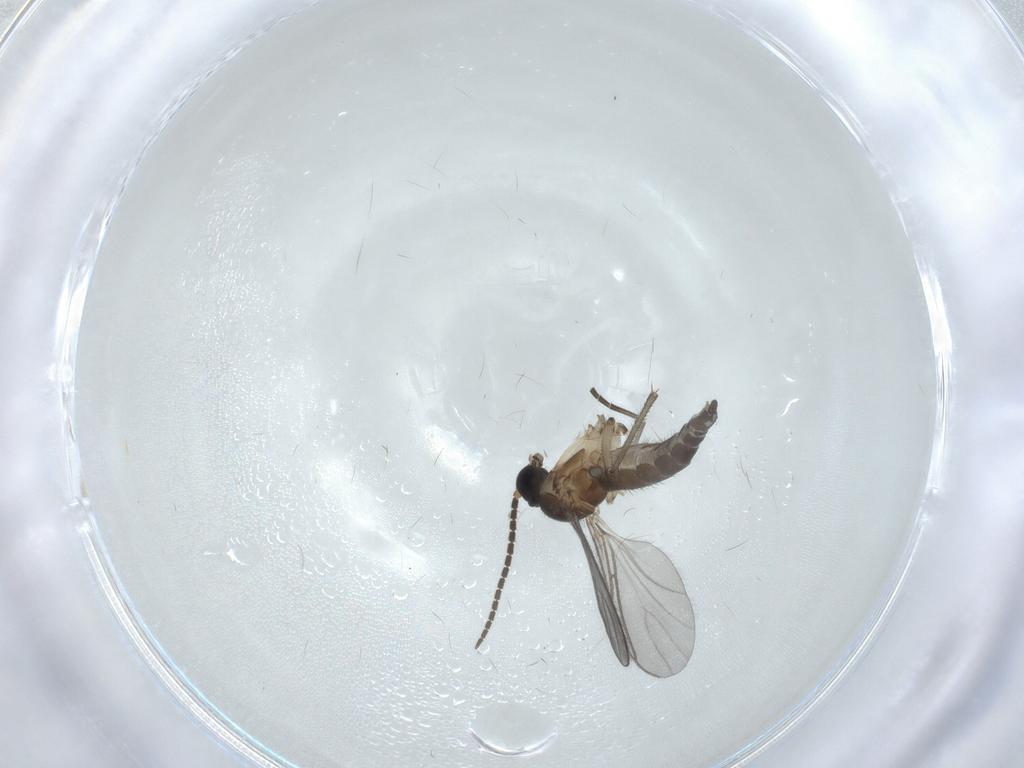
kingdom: Animalia
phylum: Arthropoda
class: Insecta
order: Diptera
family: Sciaridae
